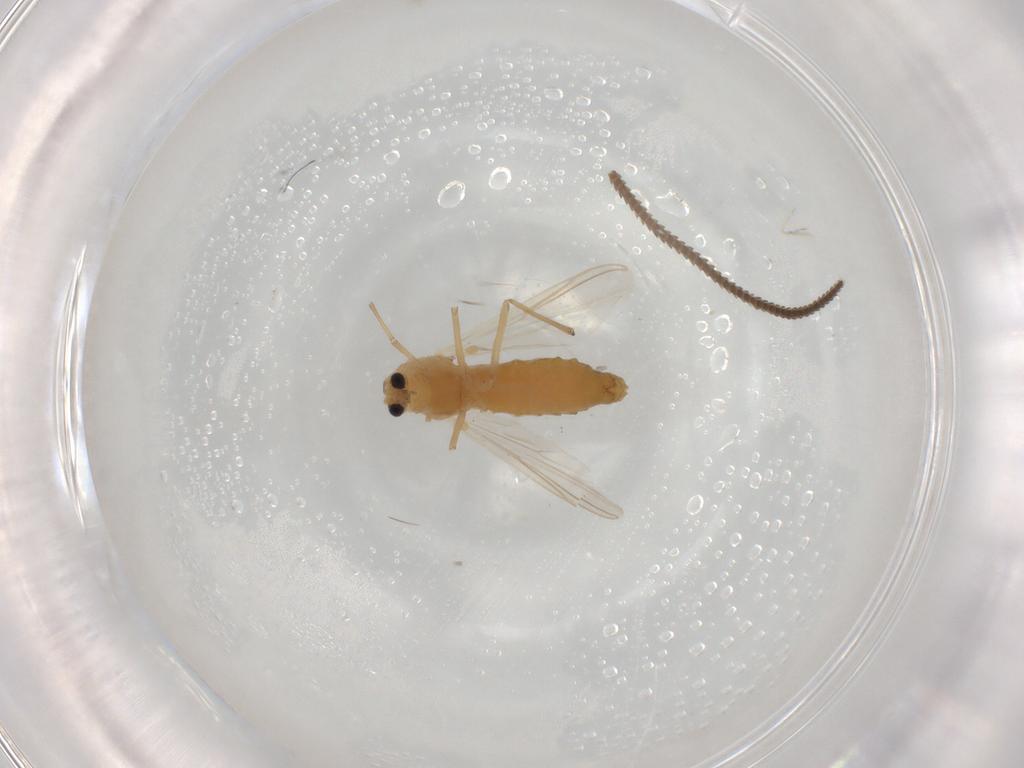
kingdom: Animalia
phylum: Arthropoda
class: Insecta
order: Diptera
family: Chironomidae
